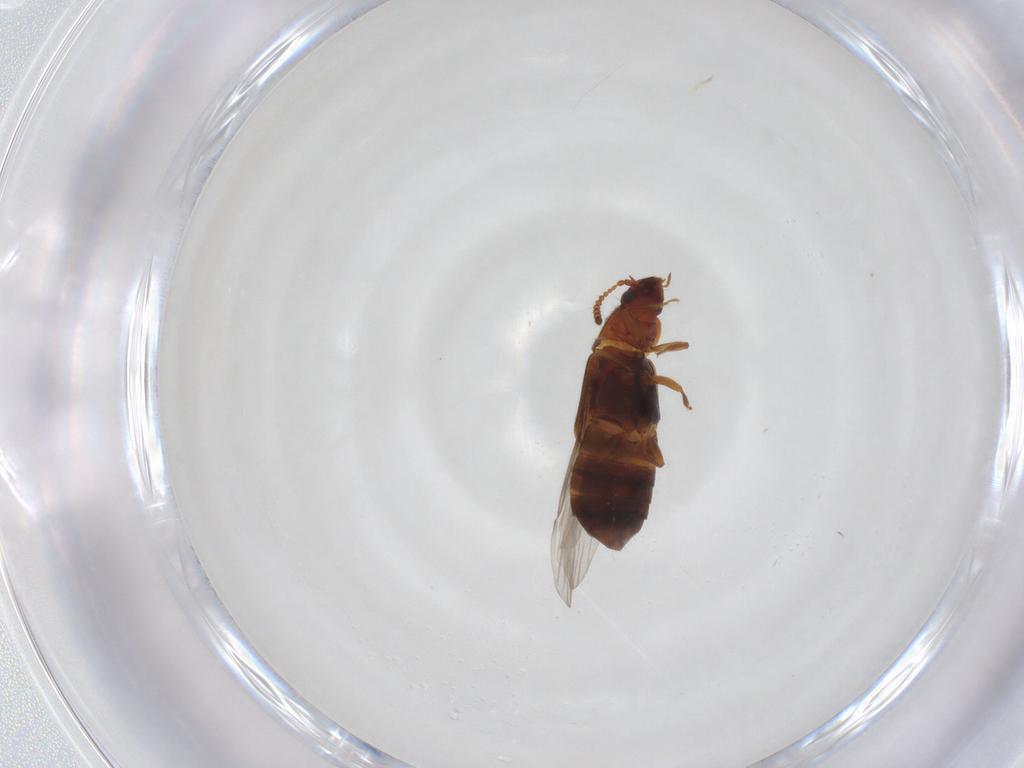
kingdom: Animalia
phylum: Arthropoda
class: Insecta
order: Coleoptera
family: Staphylinidae
